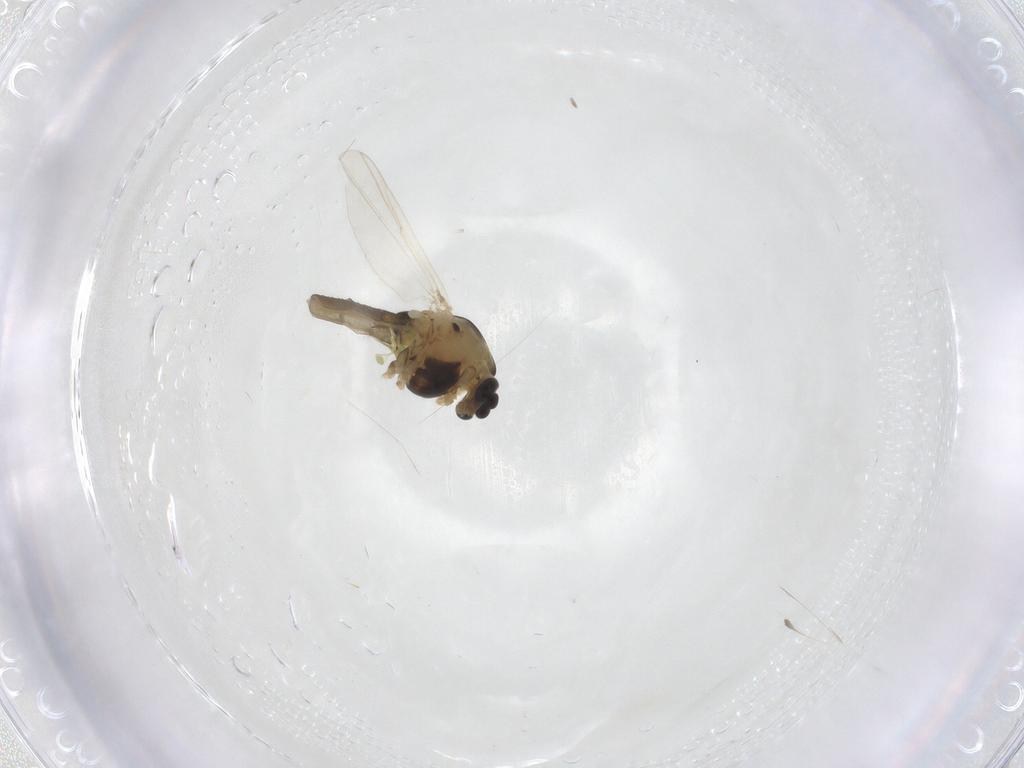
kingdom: Animalia
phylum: Arthropoda
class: Insecta
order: Diptera
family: Chironomidae
